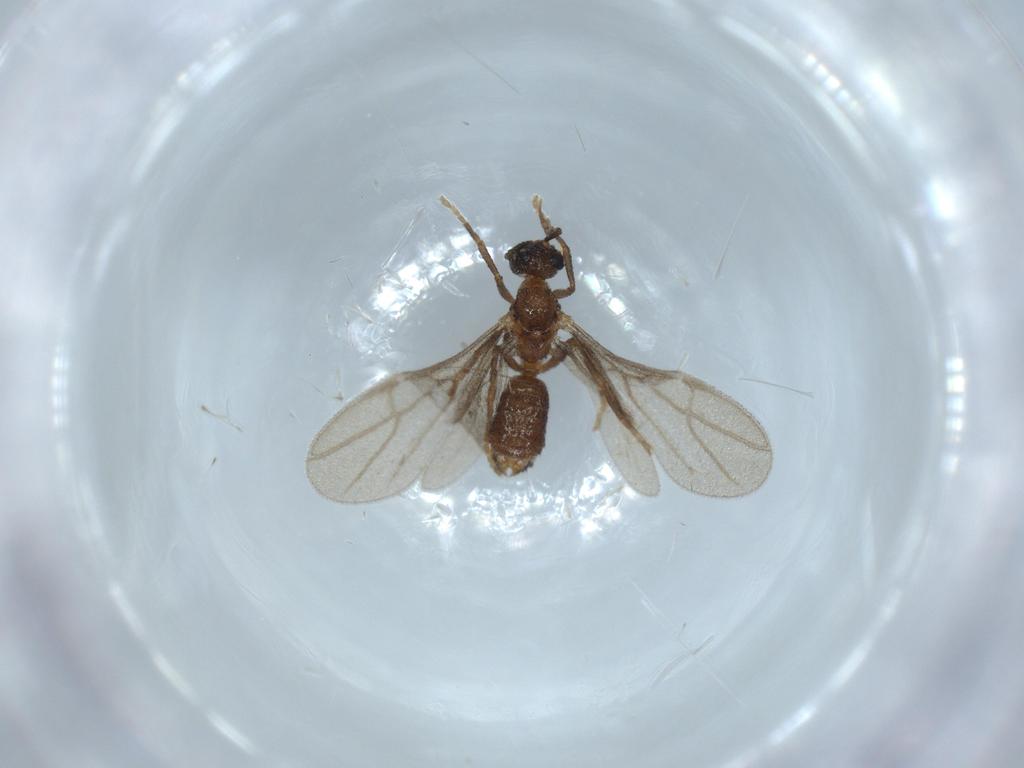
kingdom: Animalia
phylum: Arthropoda
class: Insecta
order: Hymenoptera
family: Formicidae
